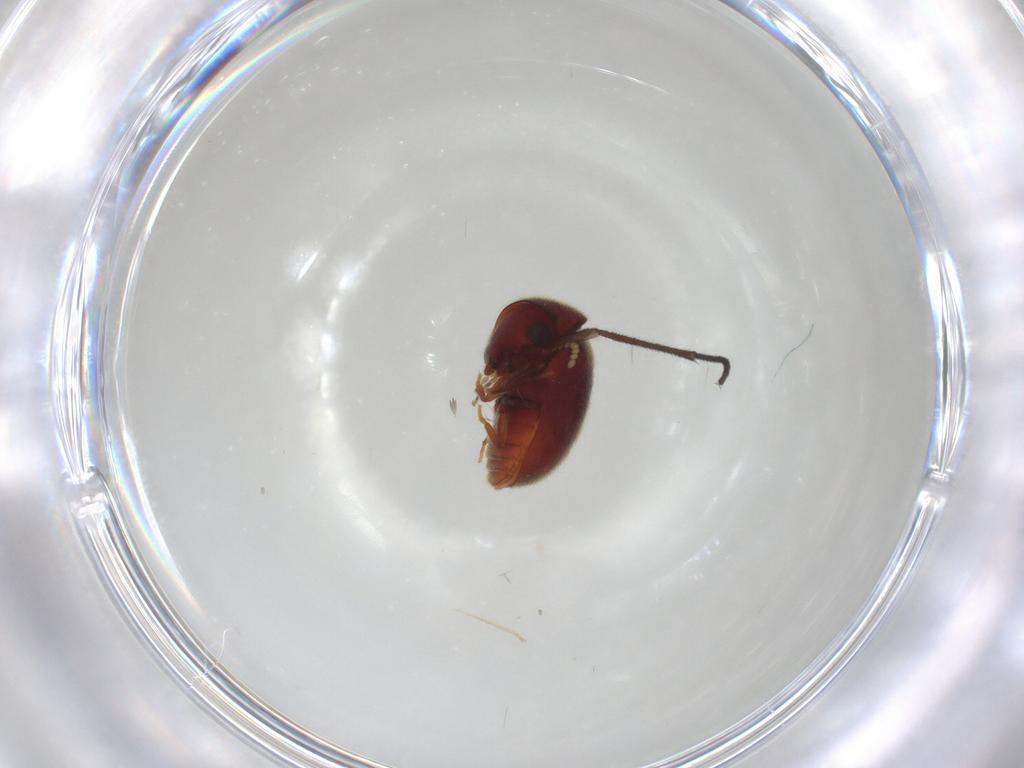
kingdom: Animalia
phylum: Arthropoda
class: Insecta
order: Coleoptera
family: Ptinidae
